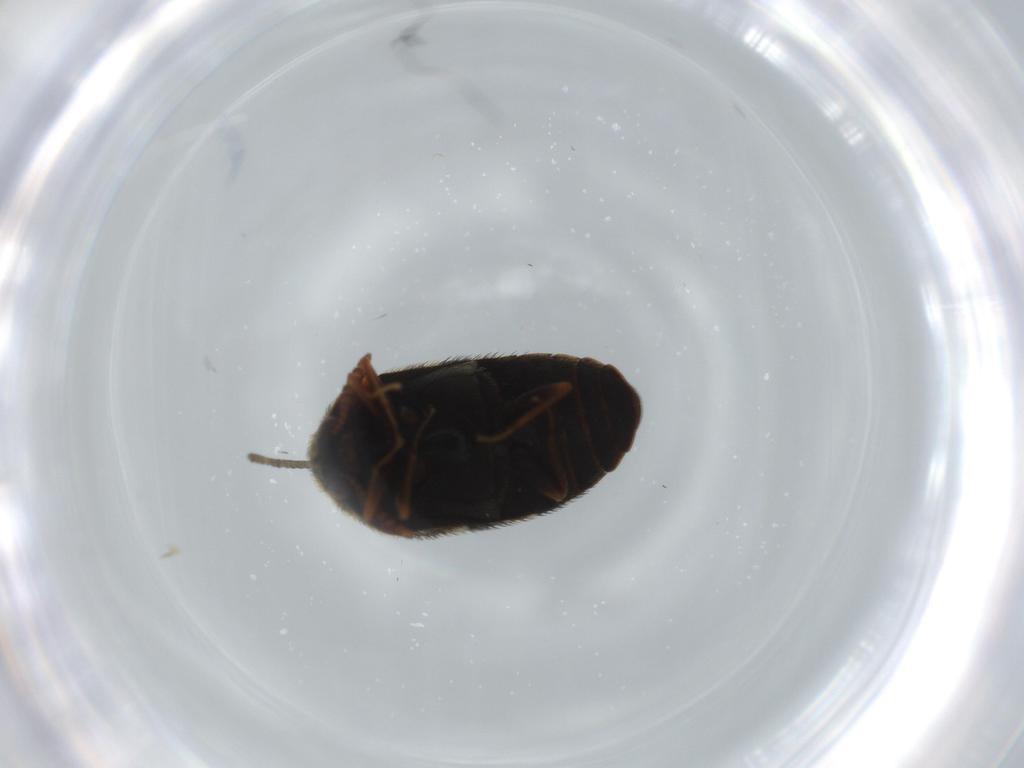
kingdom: Animalia
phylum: Arthropoda
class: Insecta
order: Coleoptera
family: Dermestidae
